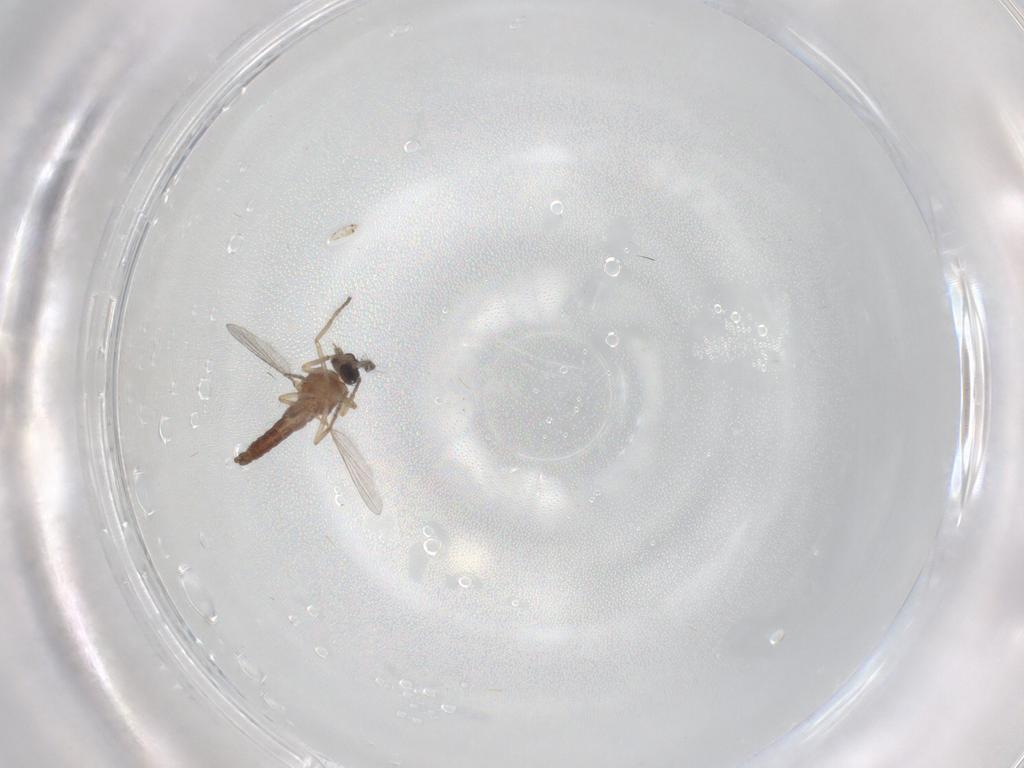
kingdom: Animalia
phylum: Arthropoda
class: Insecta
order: Diptera
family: Ceratopogonidae
